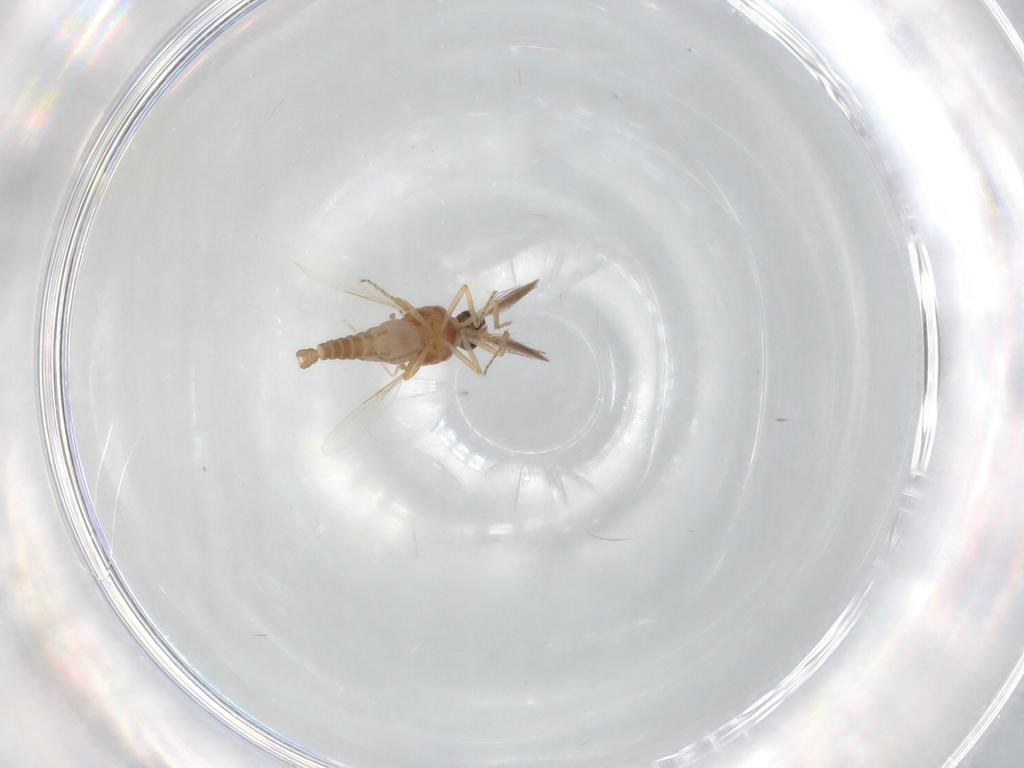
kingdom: Animalia
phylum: Arthropoda
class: Insecta
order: Diptera
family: Ceratopogonidae
